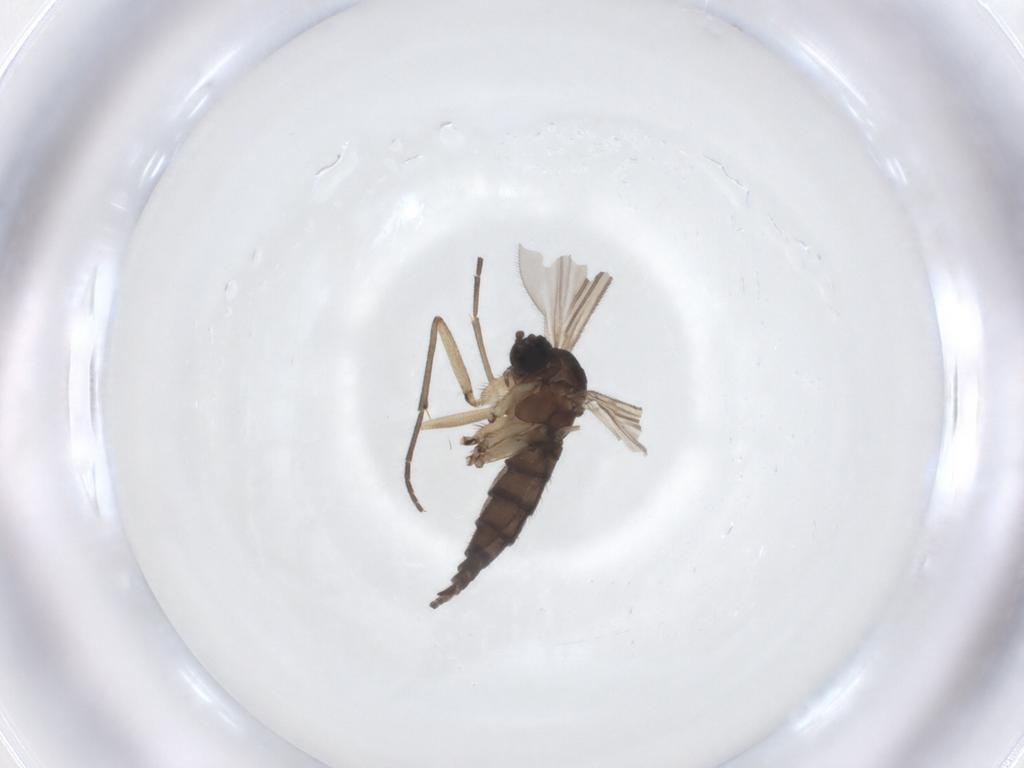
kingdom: Animalia
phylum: Arthropoda
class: Insecta
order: Diptera
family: Sciaridae
